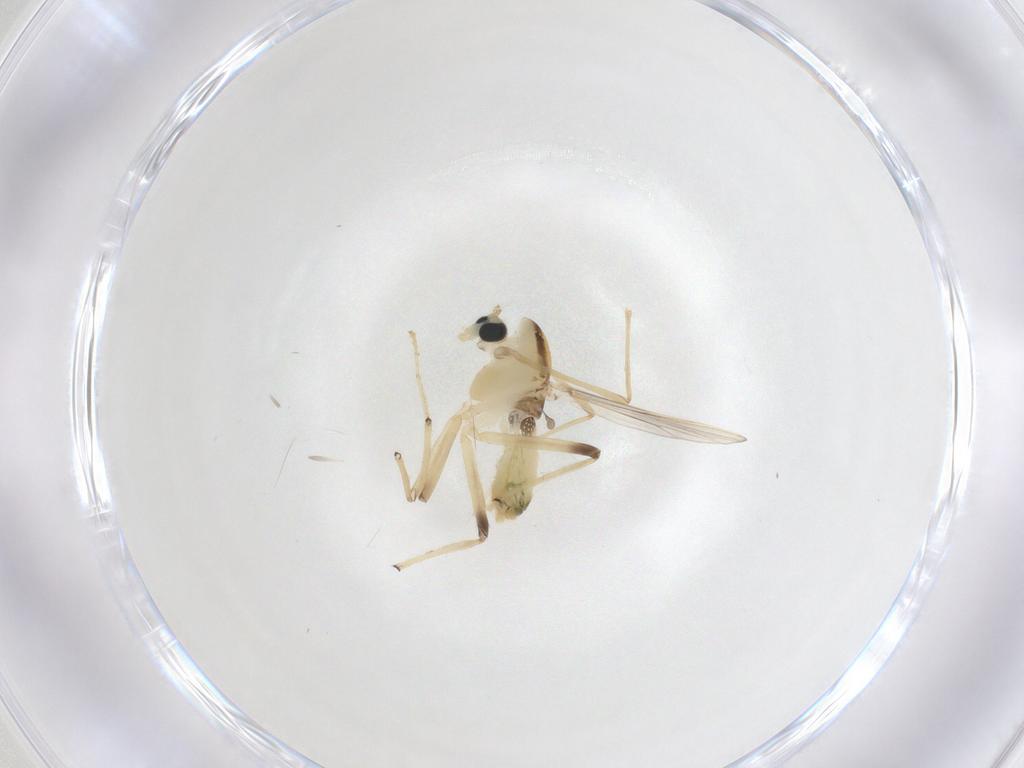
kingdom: Animalia
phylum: Arthropoda
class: Insecta
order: Diptera
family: Chironomidae
